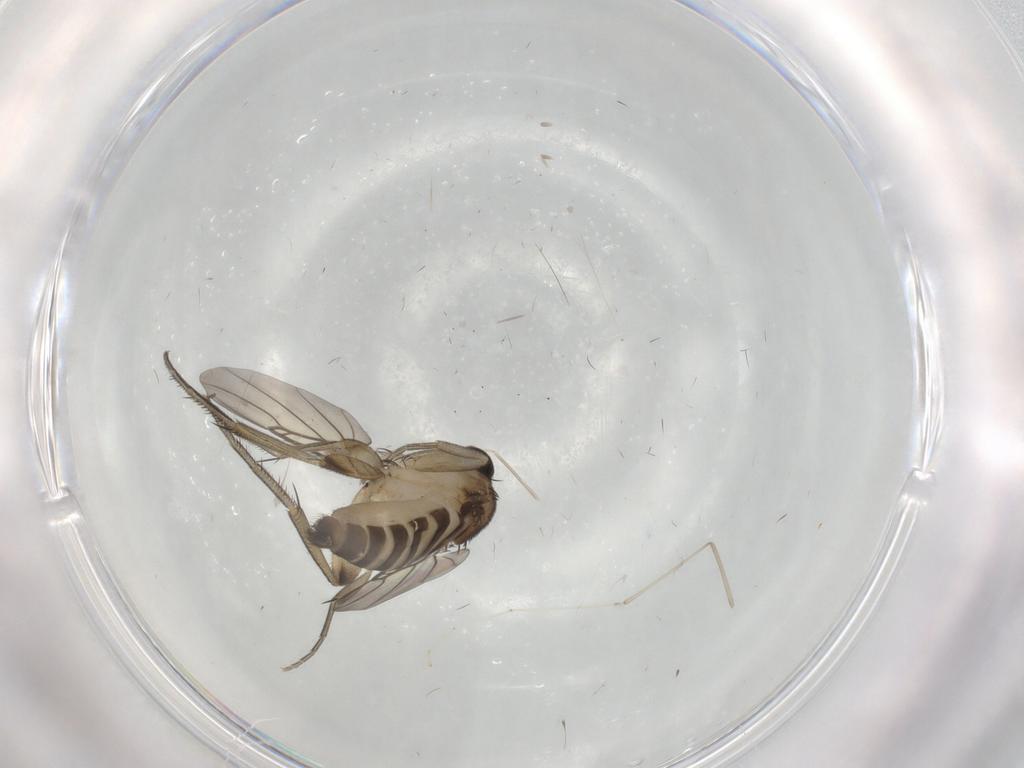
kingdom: Animalia
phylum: Arthropoda
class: Insecta
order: Diptera
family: Phoridae
